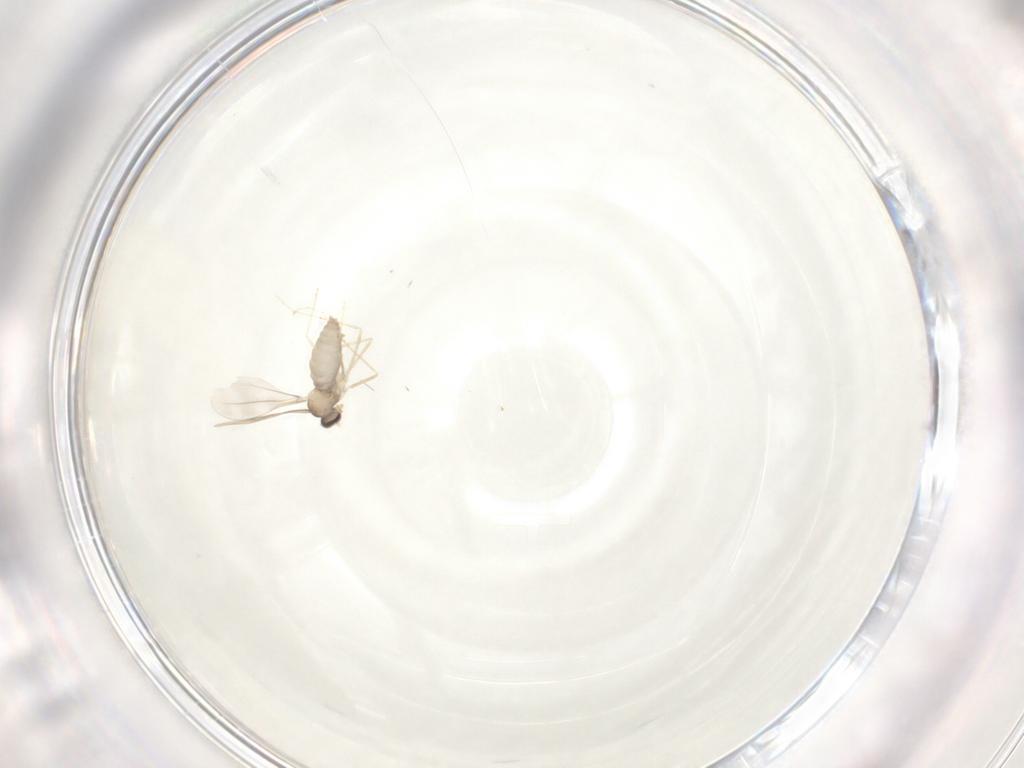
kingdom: Animalia
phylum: Arthropoda
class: Insecta
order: Diptera
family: Cecidomyiidae
